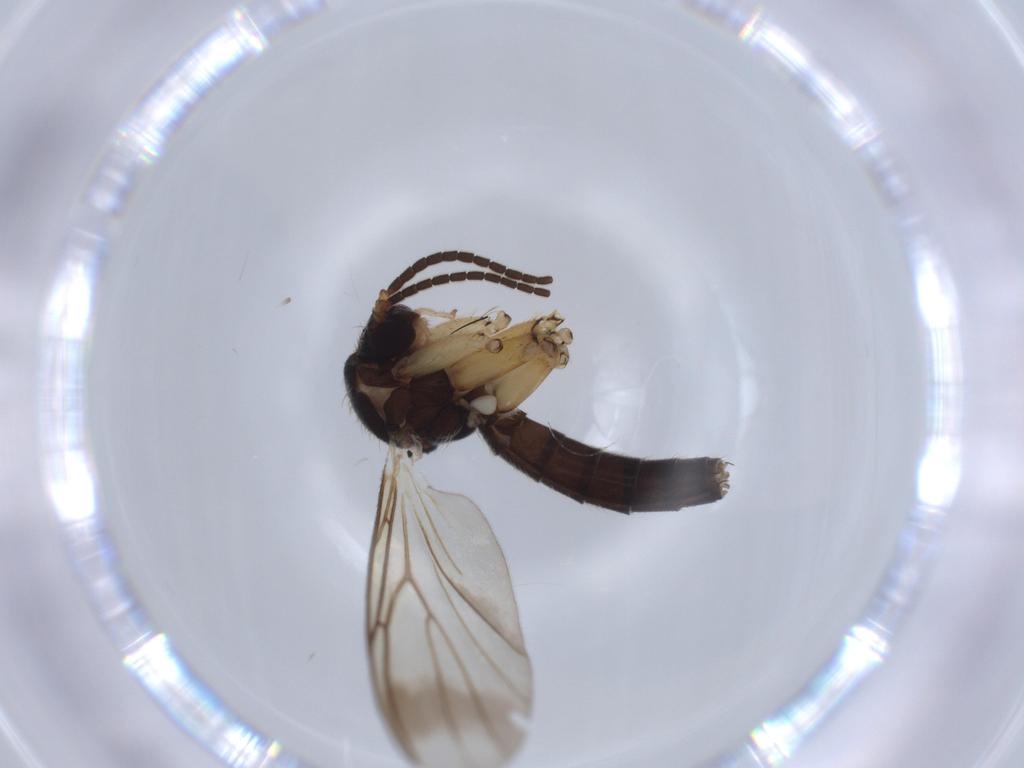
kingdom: Animalia
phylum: Arthropoda
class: Insecta
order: Diptera
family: Dolichopodidae
